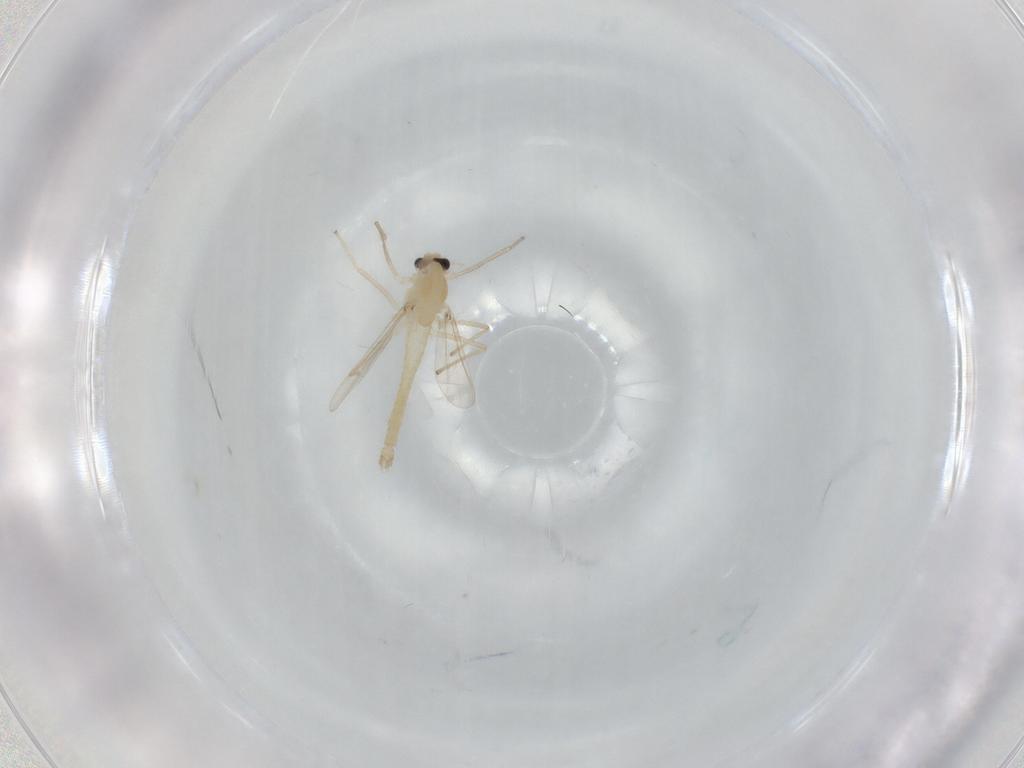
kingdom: Animalia
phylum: Arthropoda
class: Insecta
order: Diptera
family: Chironomidae
